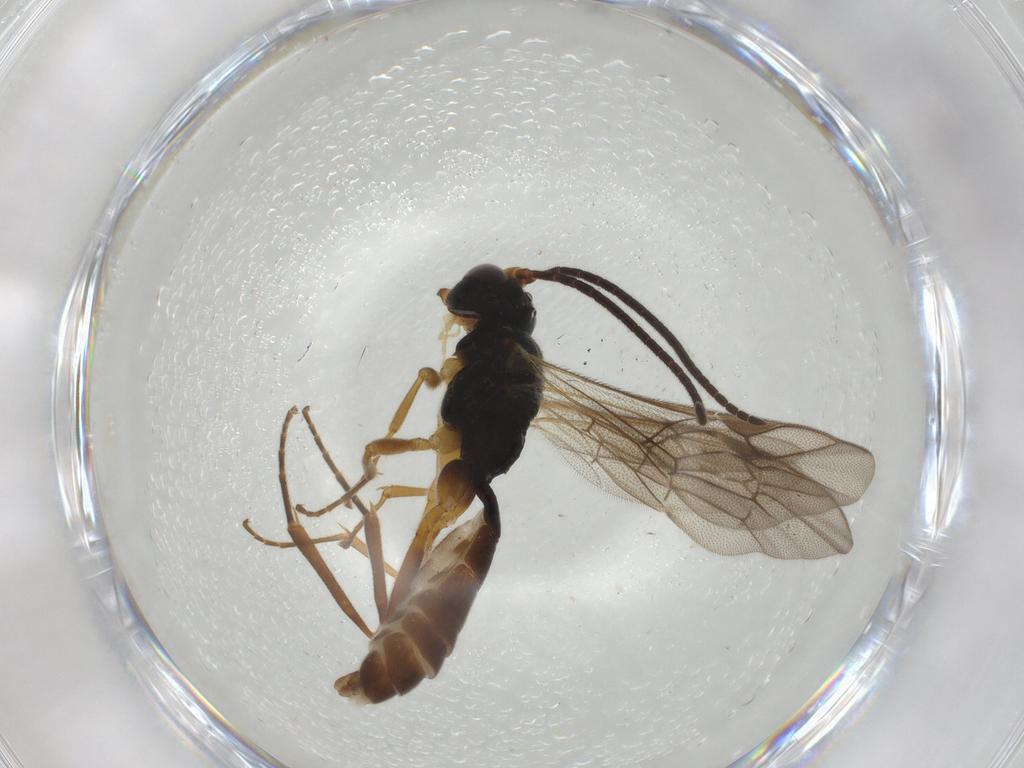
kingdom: Animalia
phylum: Arthropoda
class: Insecta
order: Hymenoptera
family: Ichneumonidae
